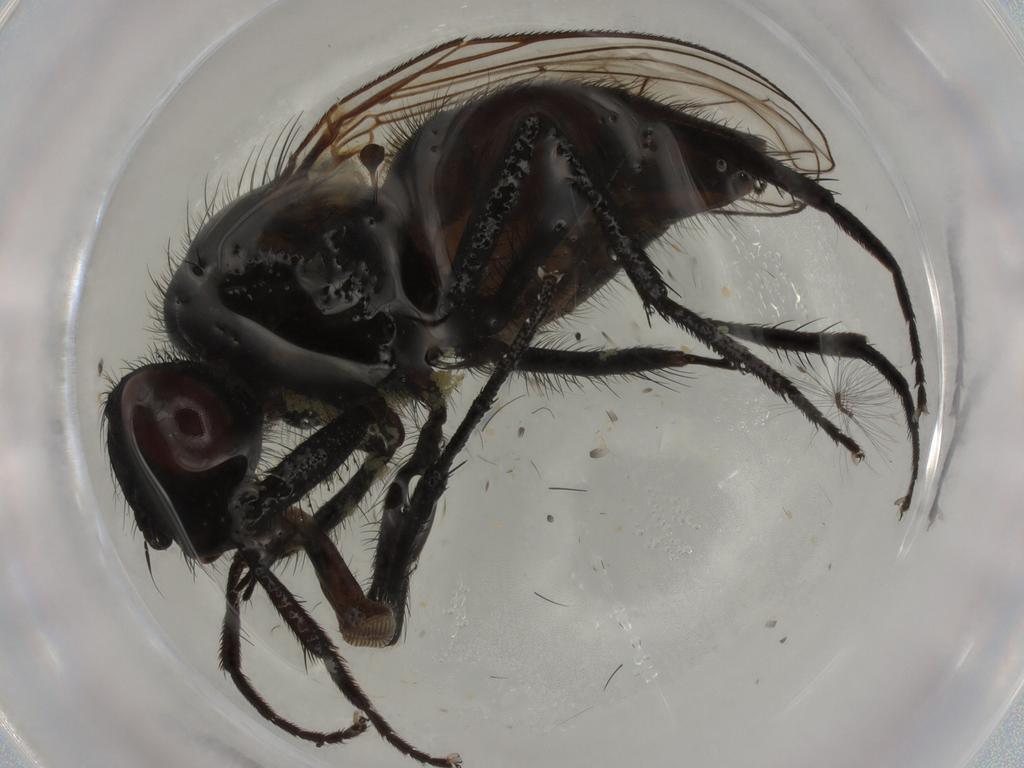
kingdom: Animalia
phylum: Arthropoda
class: Insecta
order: Diptera
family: Muscidae
